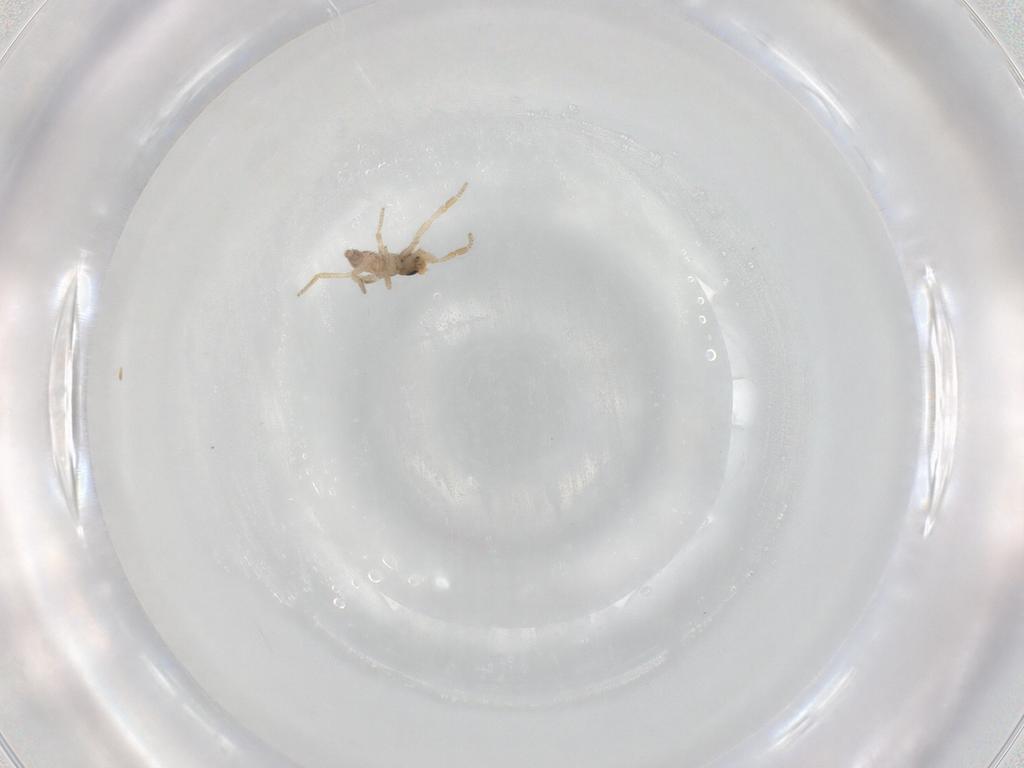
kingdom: Animalia
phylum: Arthropoda
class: Insecta
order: Diptera
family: Phoridae
